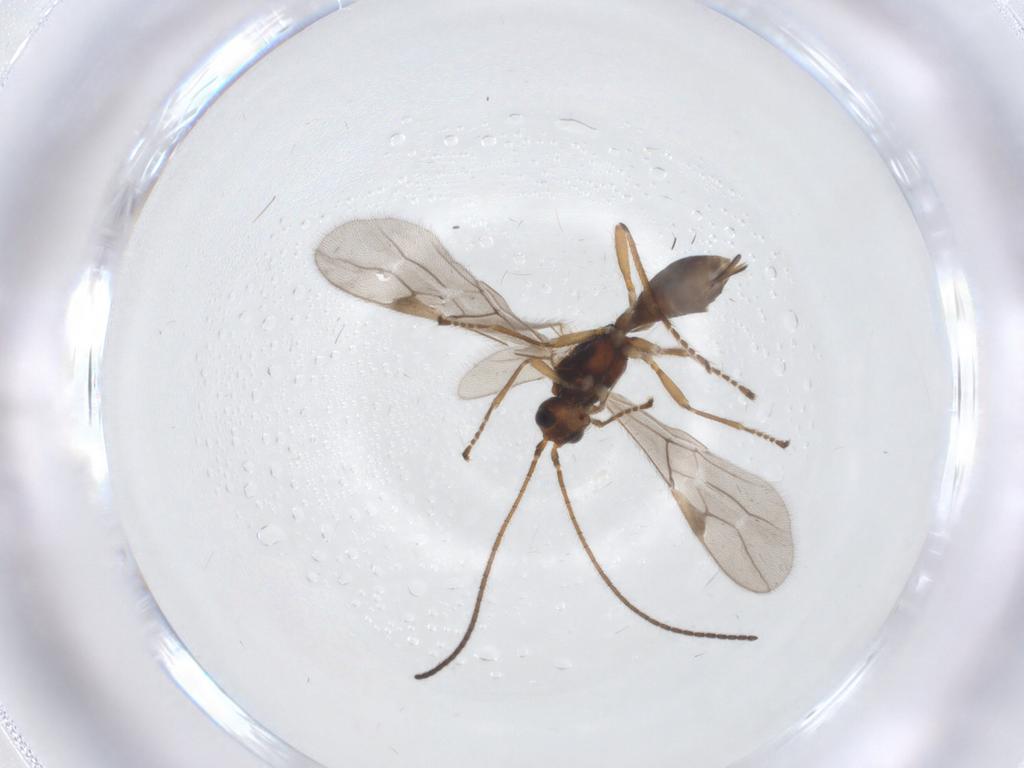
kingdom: Animalia
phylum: Arthropoda
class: Insecta
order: Hymenoptera
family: Braconidae
